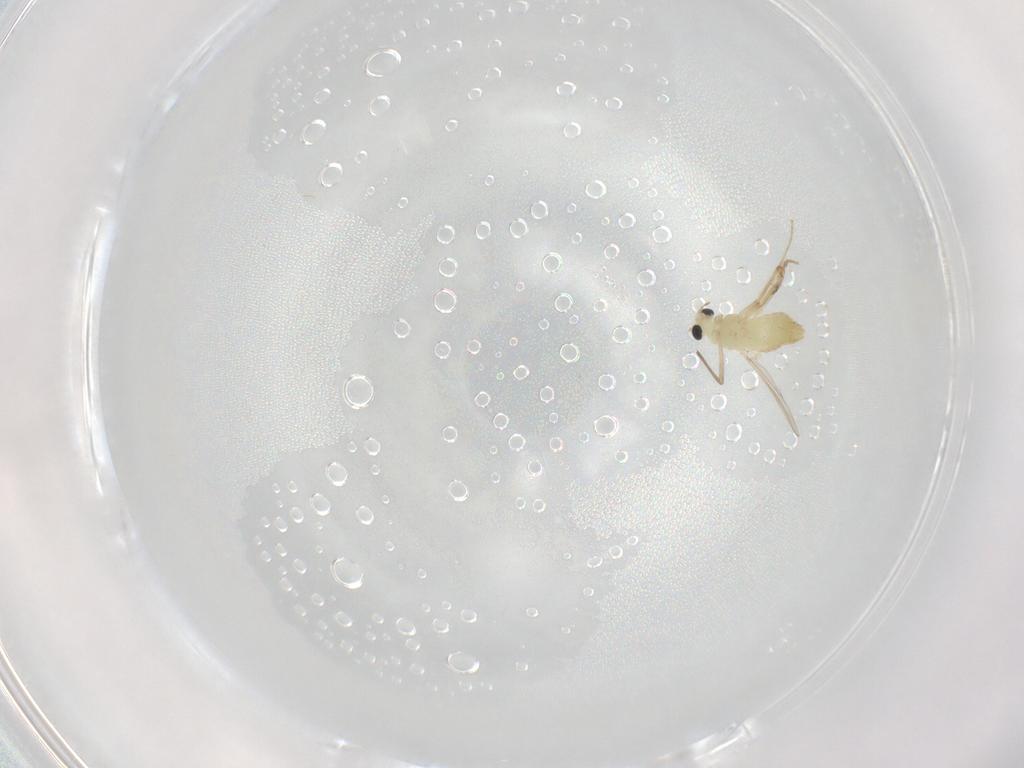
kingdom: Animalia
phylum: Arthropoda
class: Insecta
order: Diptera
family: Chironomidae
